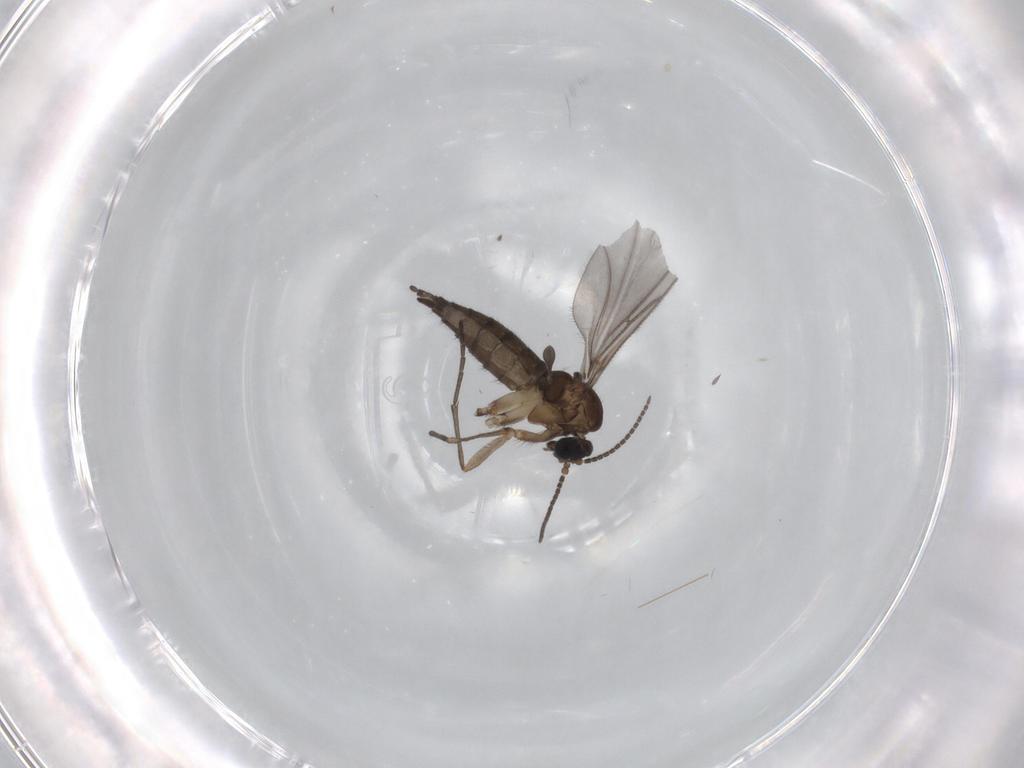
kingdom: Animalia
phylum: Arthropoda
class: Insecta
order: Diptera
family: Sciaridae
